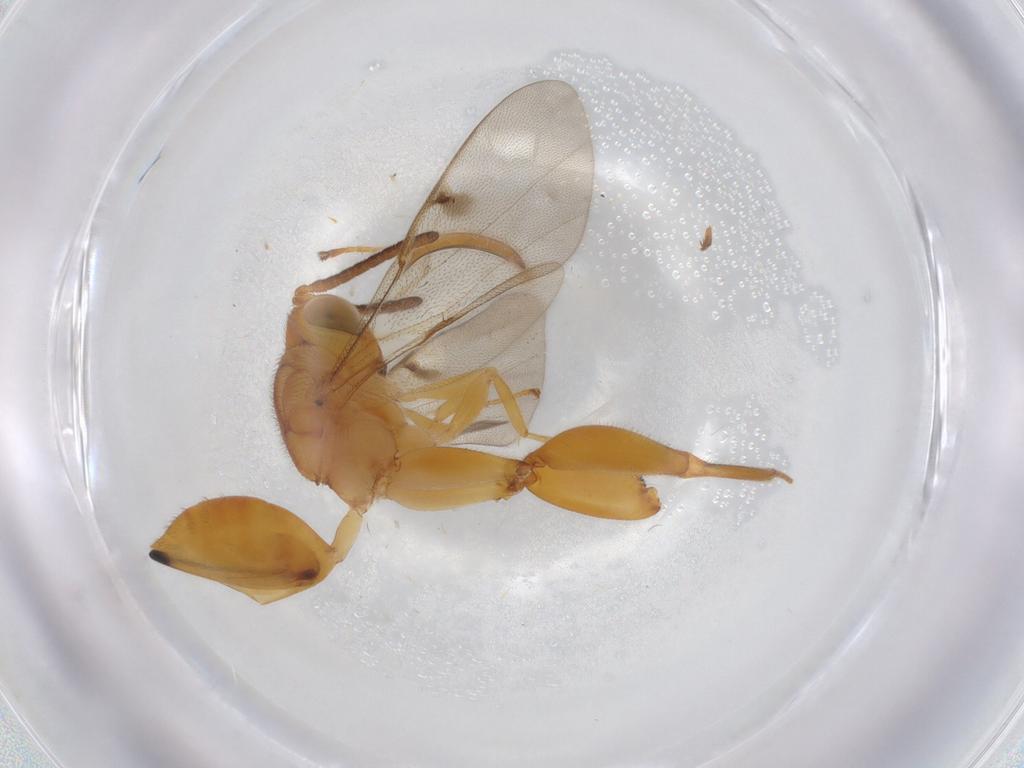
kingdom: Animalia
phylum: Arthropoda
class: Insecta
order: Hymenoptera
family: Chalcididae
